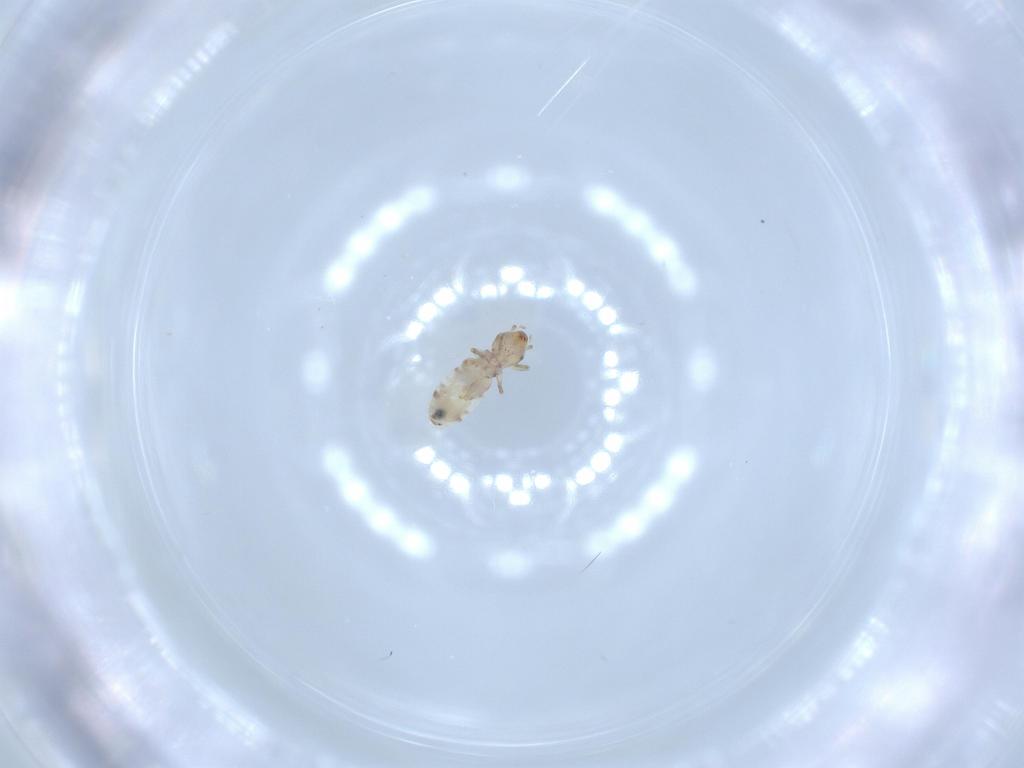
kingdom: Animalia
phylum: Arthropoda
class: Insecta
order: Psocodea
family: Liposcelididae
